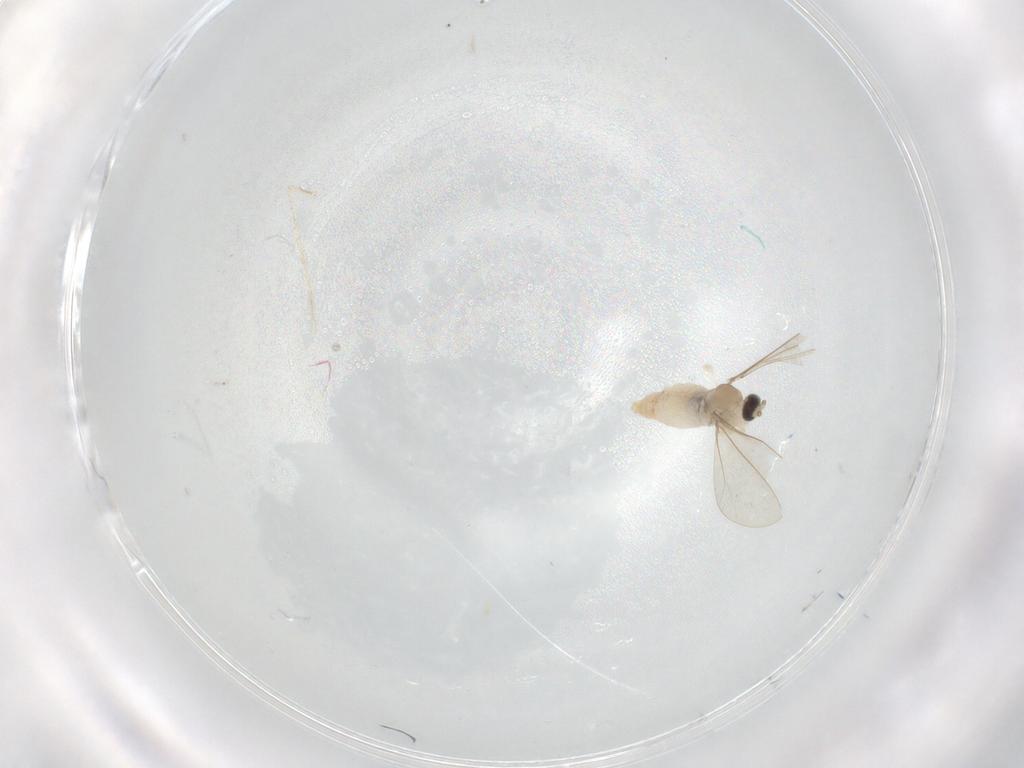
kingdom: Animalia
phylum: Arthropoda
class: Insecta
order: Diptera
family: Cecidomyiidae
